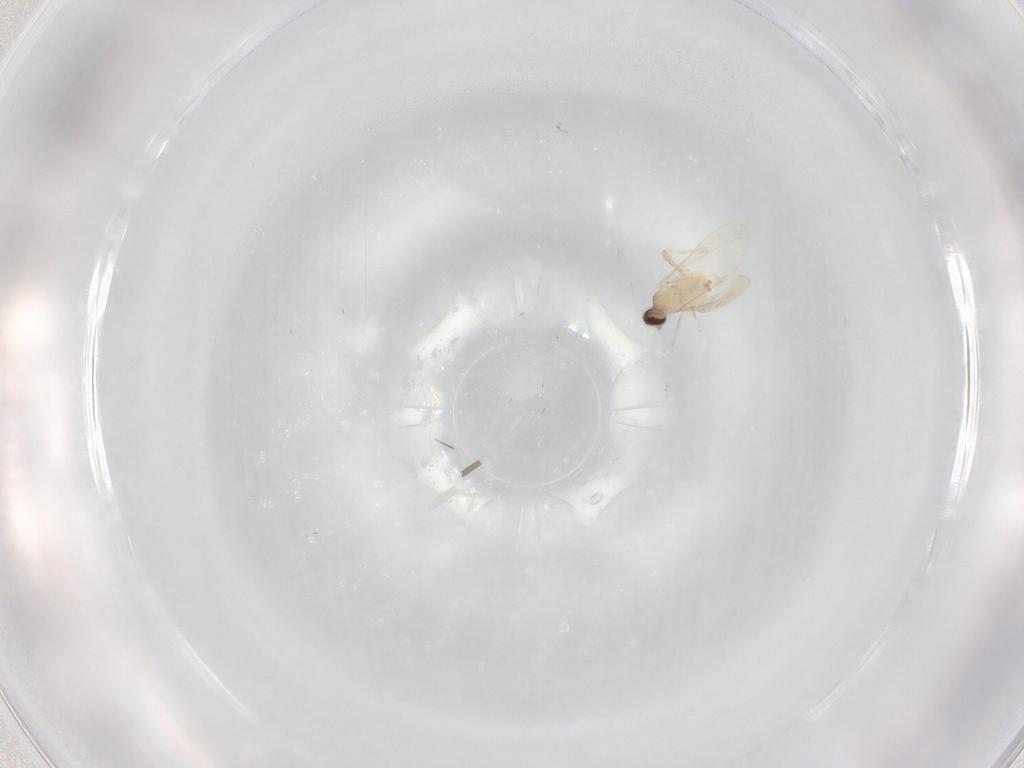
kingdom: Animalia
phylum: Arthropoda
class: Insecta
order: Diptera
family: Cecidomyiidae
